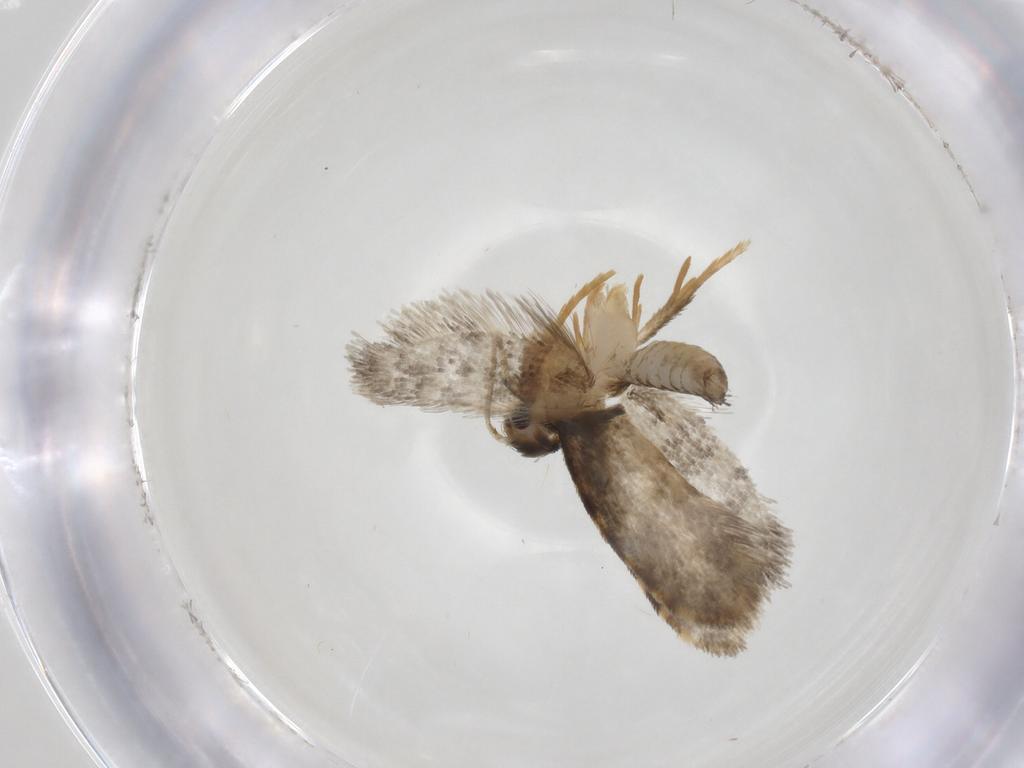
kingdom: Animalia
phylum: Arthropoda
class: Insecta
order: Lepidoptera
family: Psychidae
